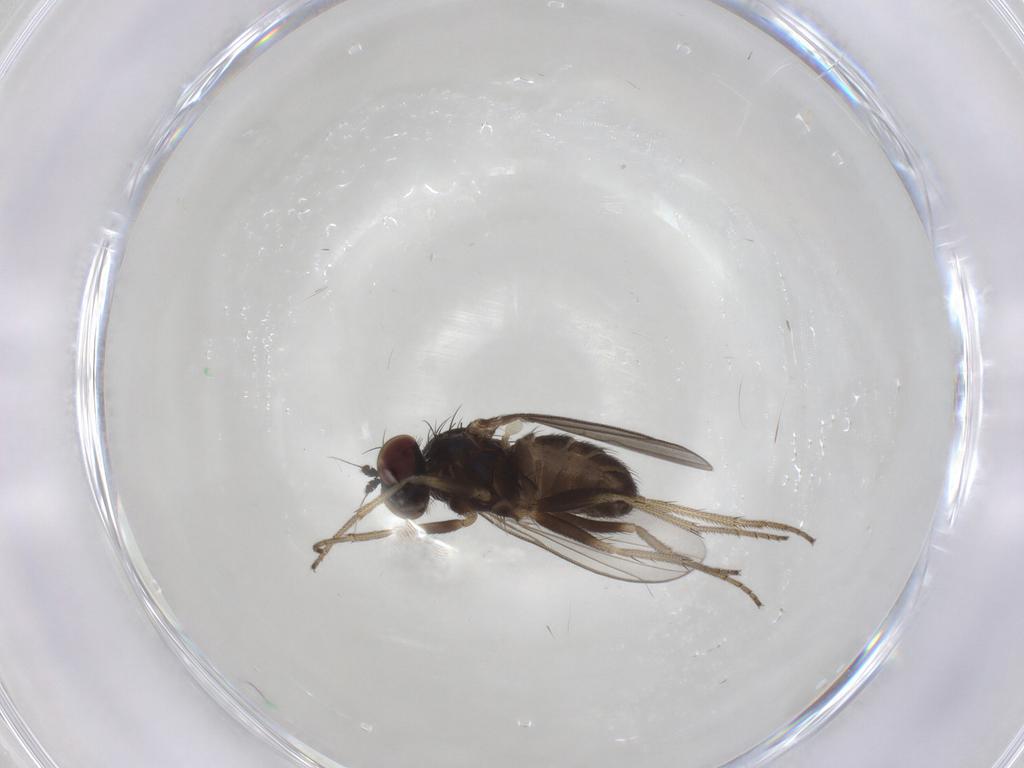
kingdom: Animalia
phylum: Arthropoda
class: Insecta
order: Diptera
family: Dolichopodidae
